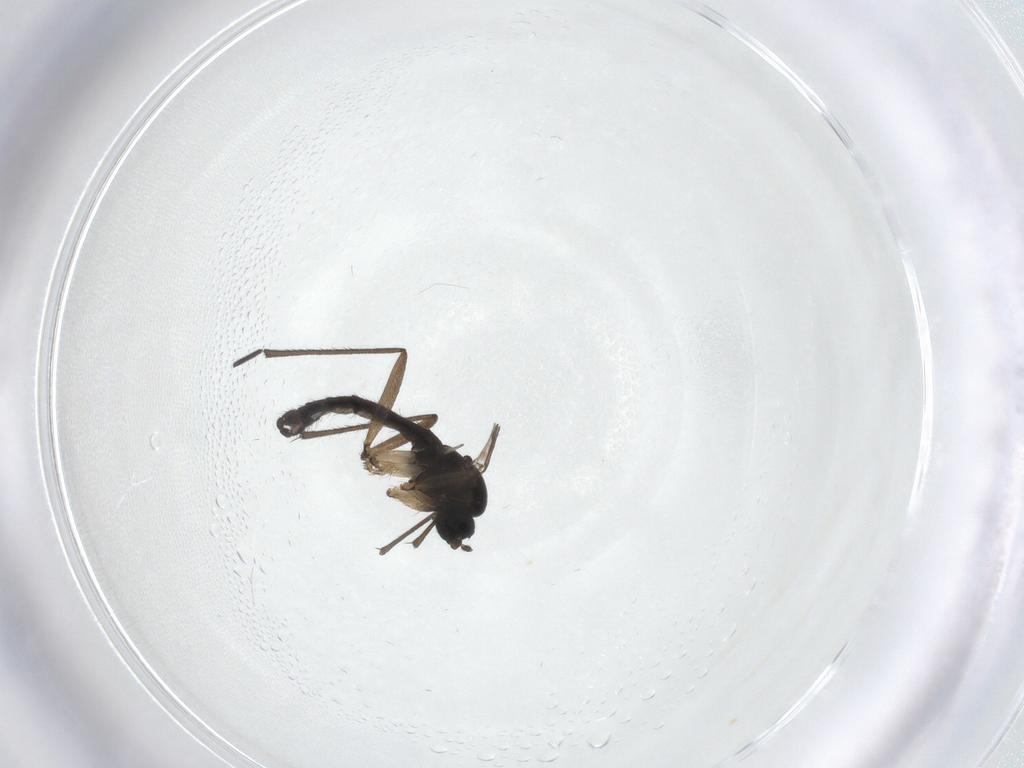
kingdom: Animalia
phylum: Arthropoda
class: Insecta
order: Diptera
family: Sciaridae
